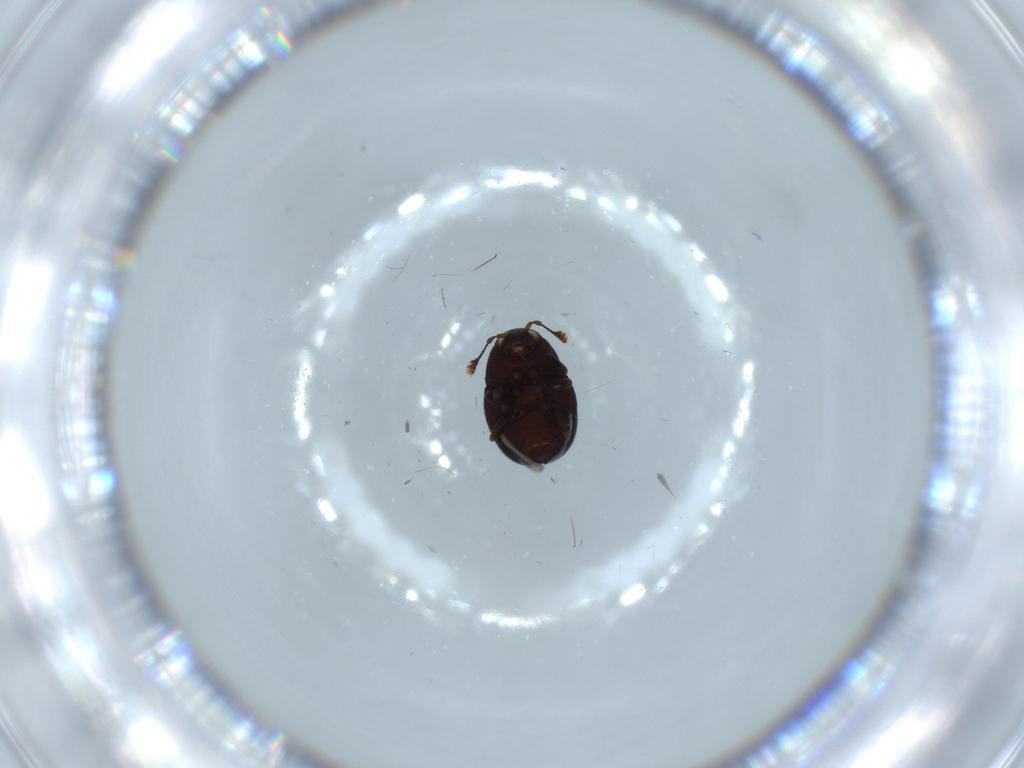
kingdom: Animalia
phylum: Arthropoda
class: Insecta
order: Coleoptera
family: Anthribidae
